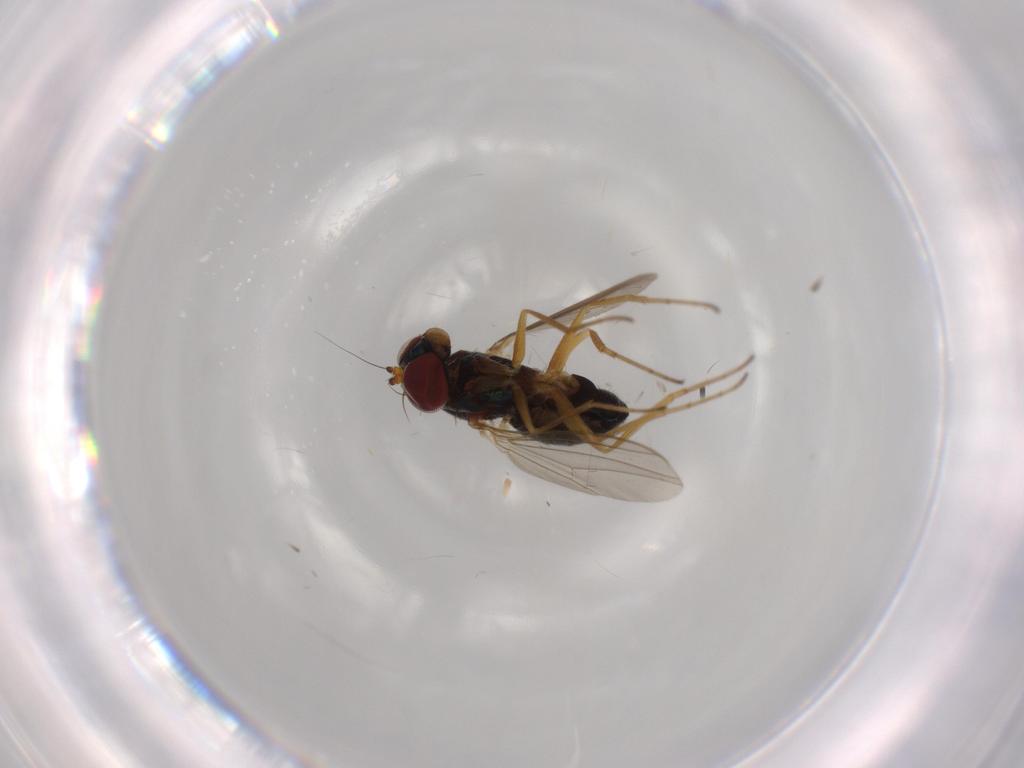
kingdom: Animalia
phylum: Arthropoda
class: Insecta
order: Diptera
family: Dolichopodidae
